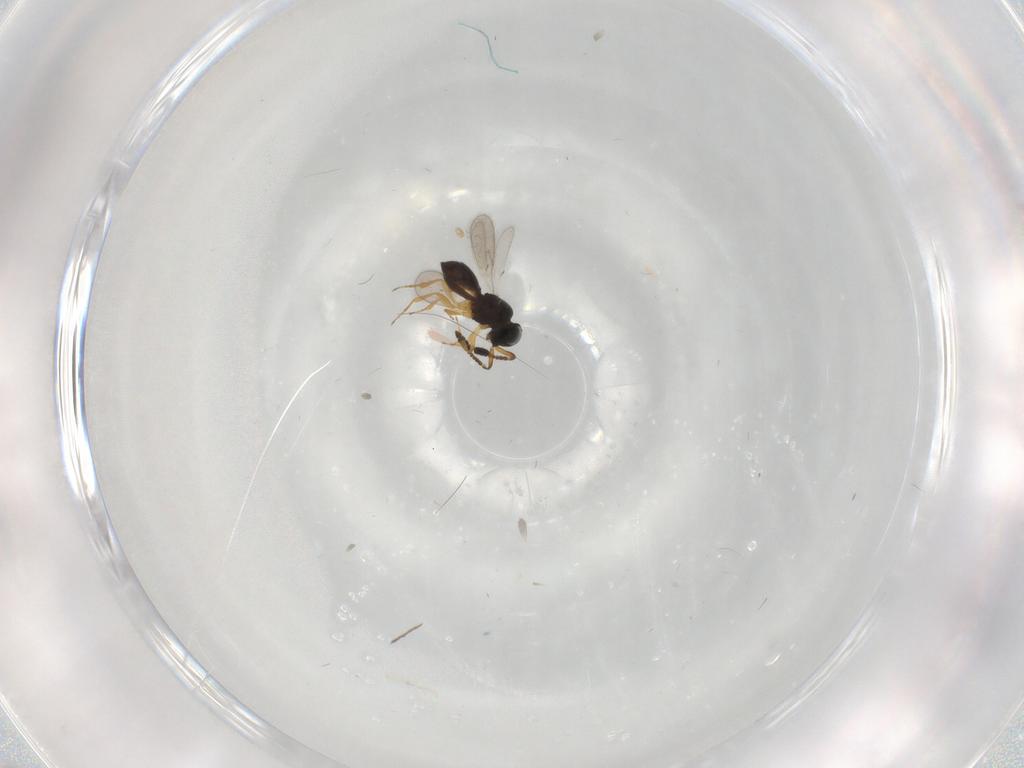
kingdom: Animalia
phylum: Arthropoda
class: Insecta
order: Hymenoptera
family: Scelionidae
